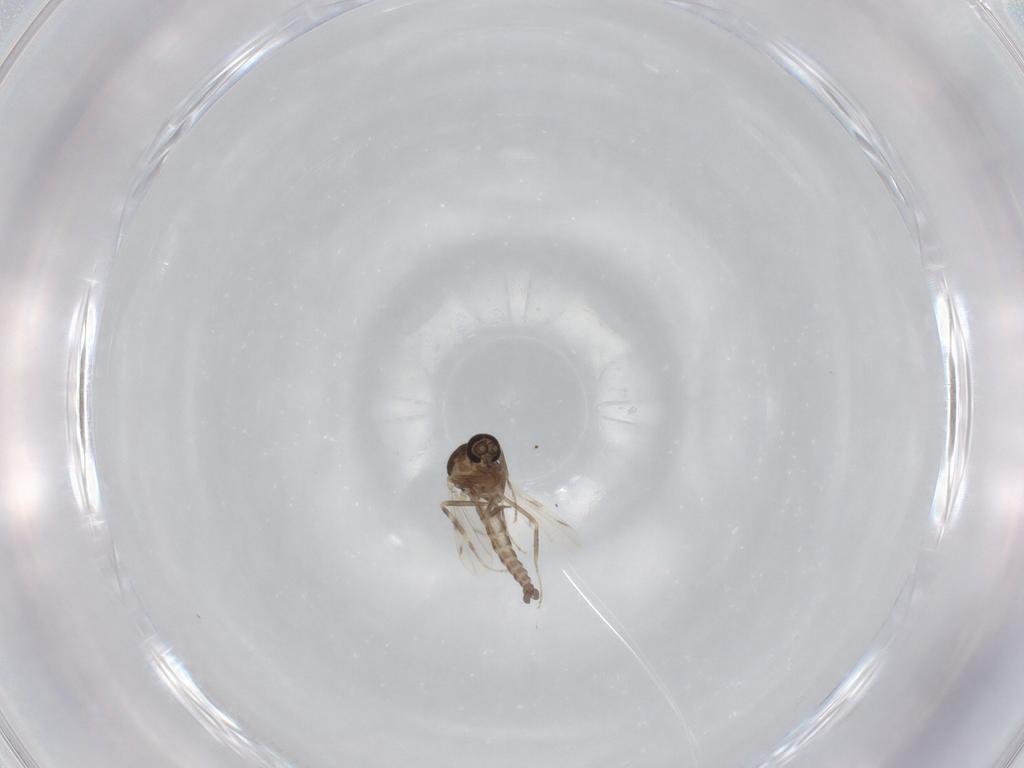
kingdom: Animalia
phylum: Arthropoda
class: Insecta
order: Diptera
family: Ceratopogonidae
